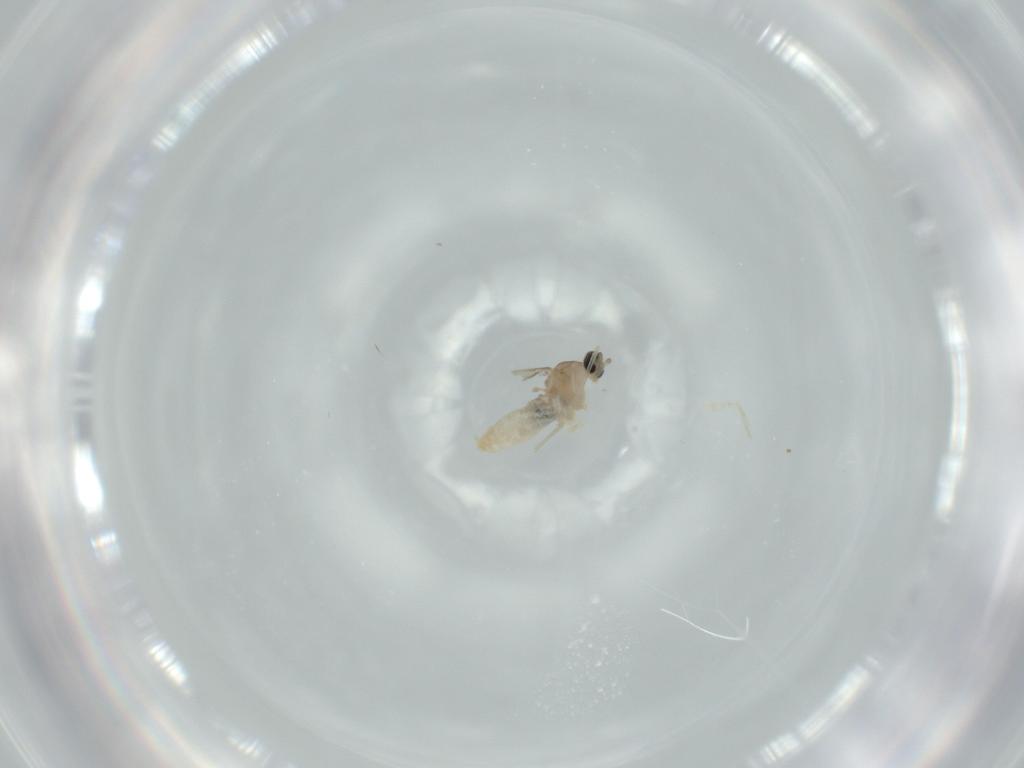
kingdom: Animalia
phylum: Arthropoda
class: Insecta
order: Diptera
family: Cecidomyiidae
